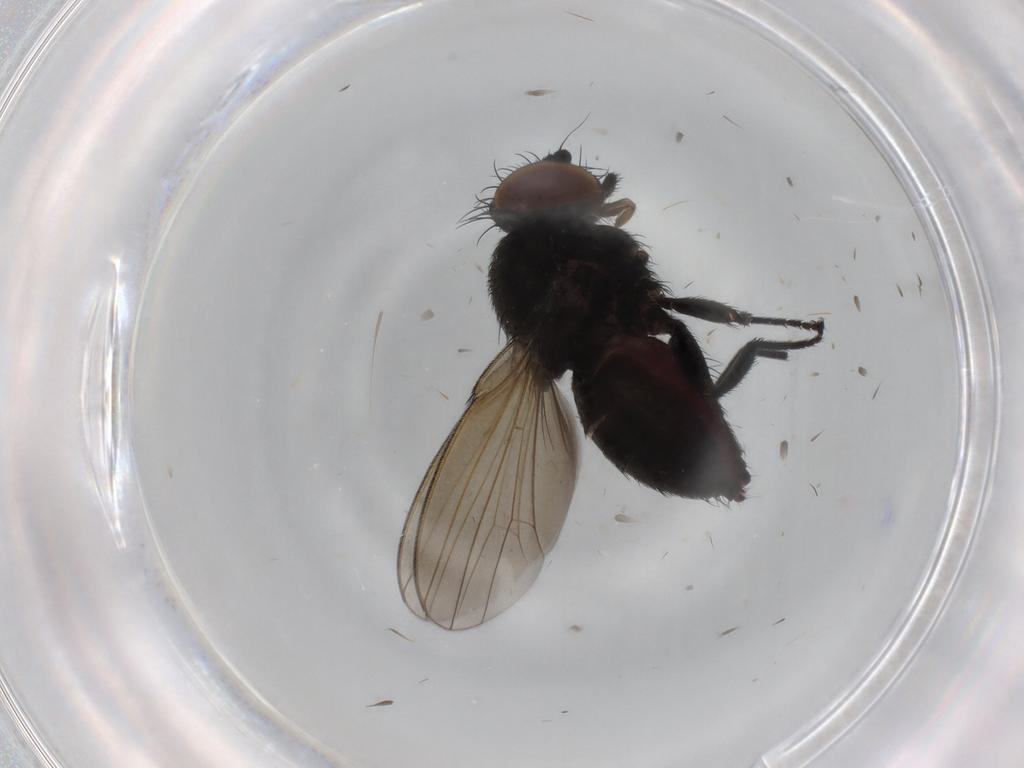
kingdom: Animalia
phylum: Arthropoda
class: Insecta
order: Diptera
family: Milichiidae
